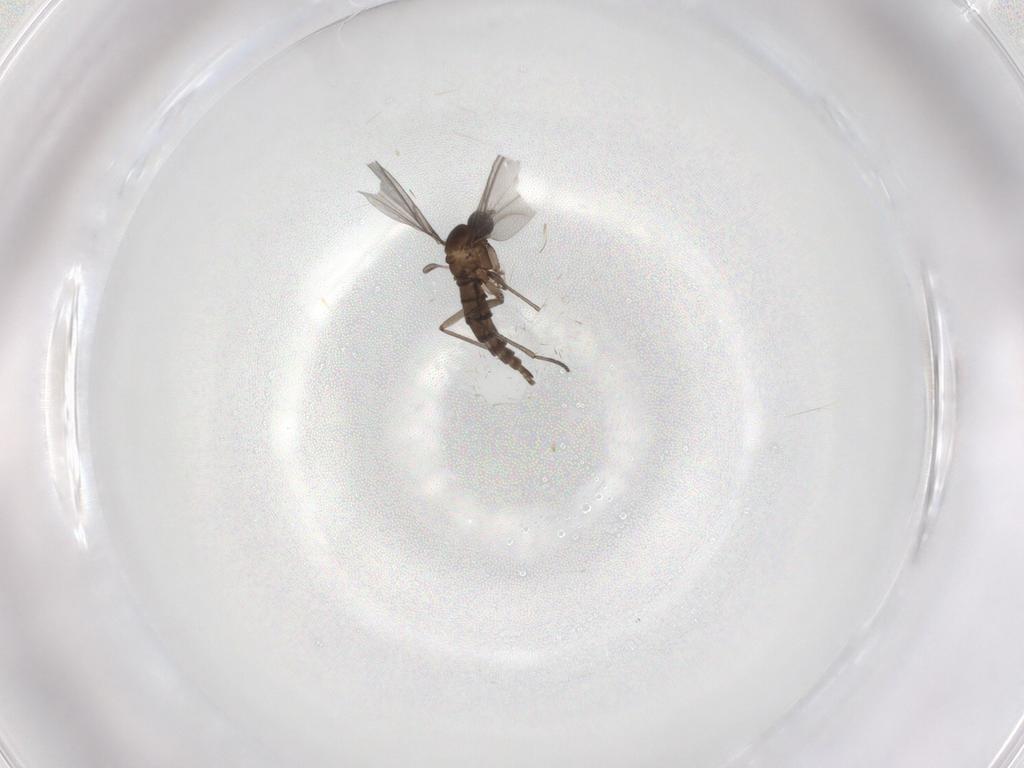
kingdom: Animalia
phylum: Arthropoda
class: Insecta
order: Diptera
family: Chironomidae
